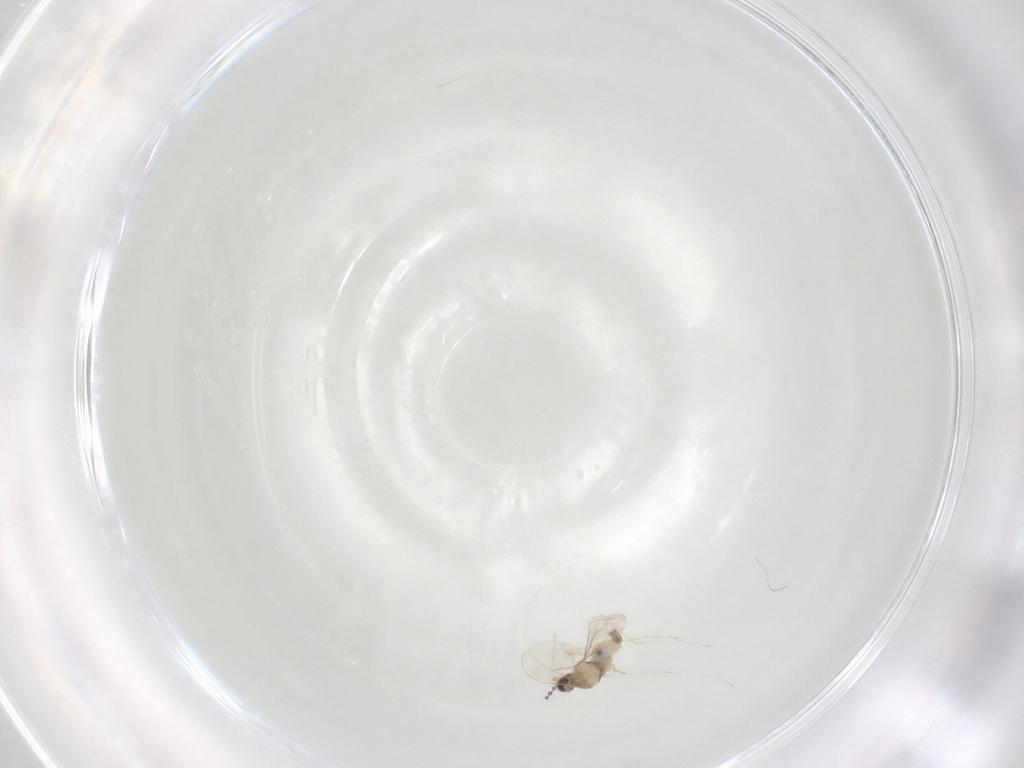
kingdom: Animalia
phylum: Arthropoda
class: Insecta
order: Diptera
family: Cecidomyiidae
